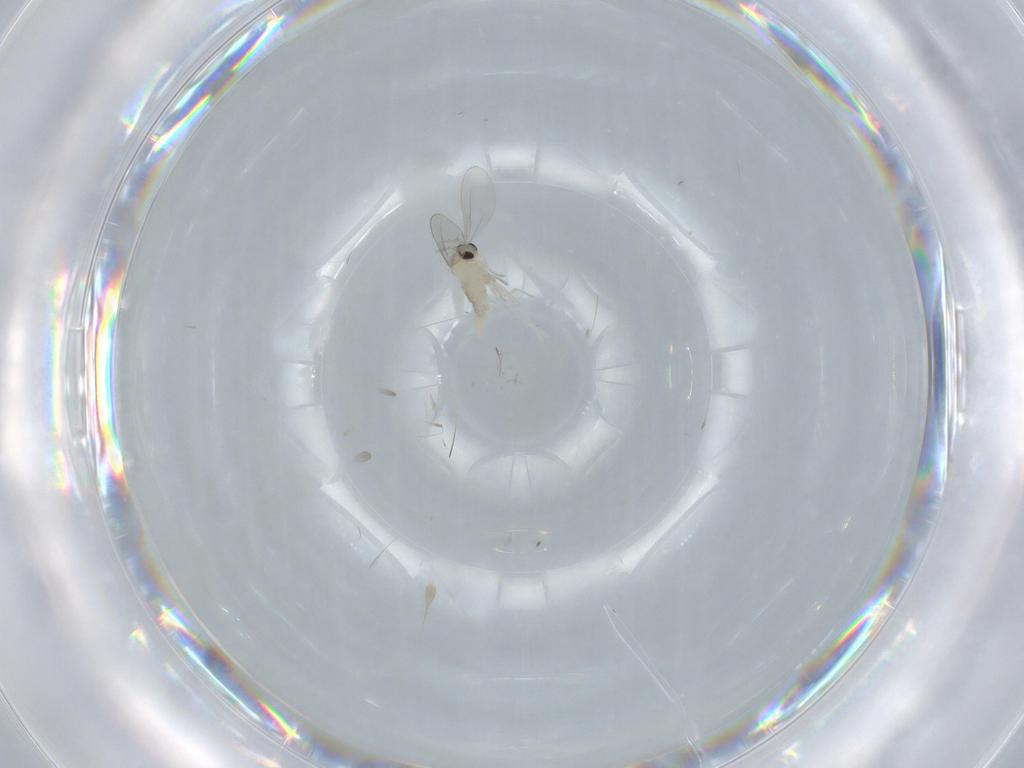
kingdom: Animalia
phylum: Arthropoda
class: Insecta
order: Diptera
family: Cecidomyiidae
